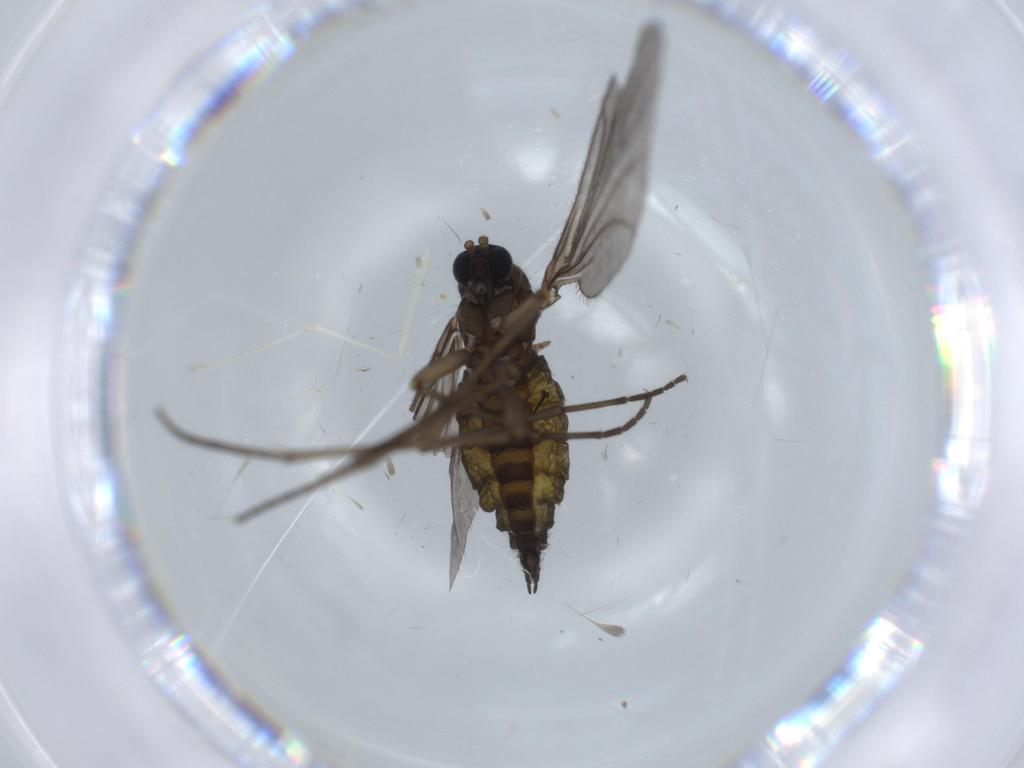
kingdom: Animalia
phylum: Arthropoda
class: Insecta
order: Diptera
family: Sciaridae
